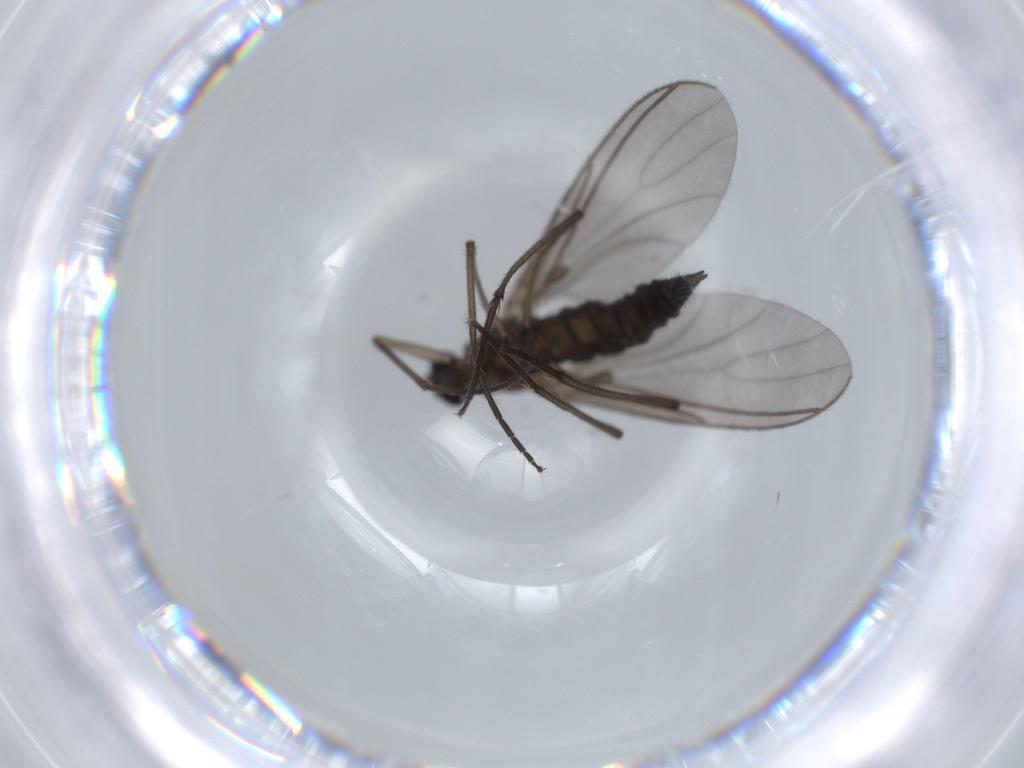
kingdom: Animalia
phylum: Arthropoda
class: Insecta
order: Diptera
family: Sciaridae
